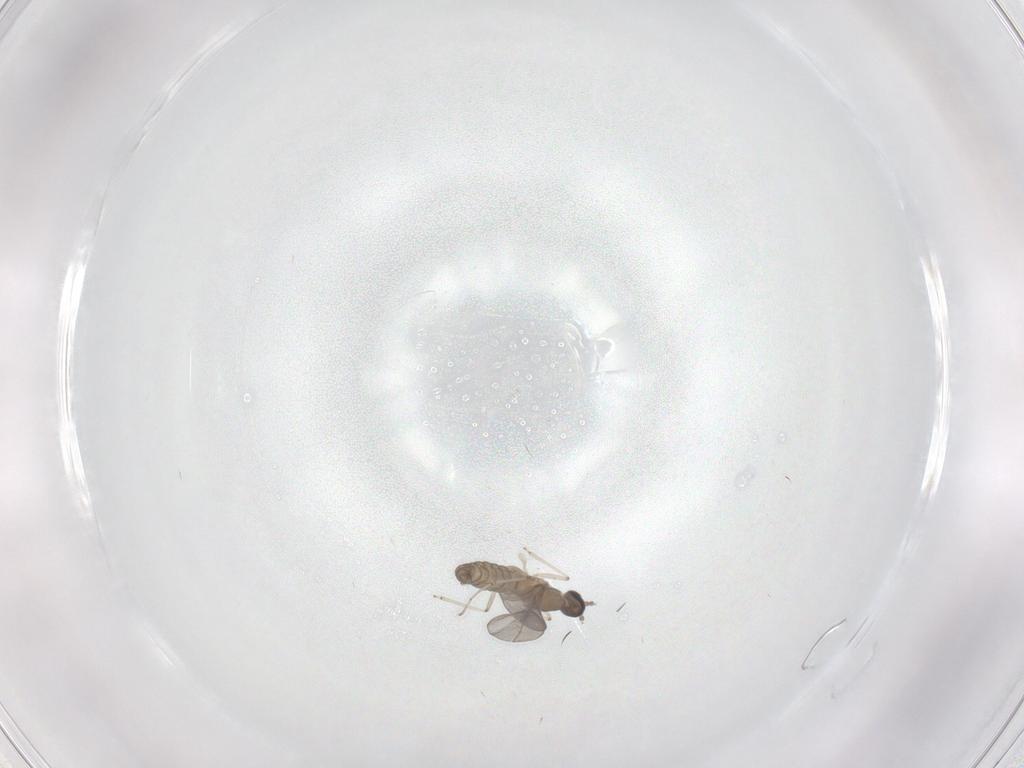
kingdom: Animalia
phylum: Arthropoda
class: Insecta
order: Diptera
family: Cecidomyiidae
